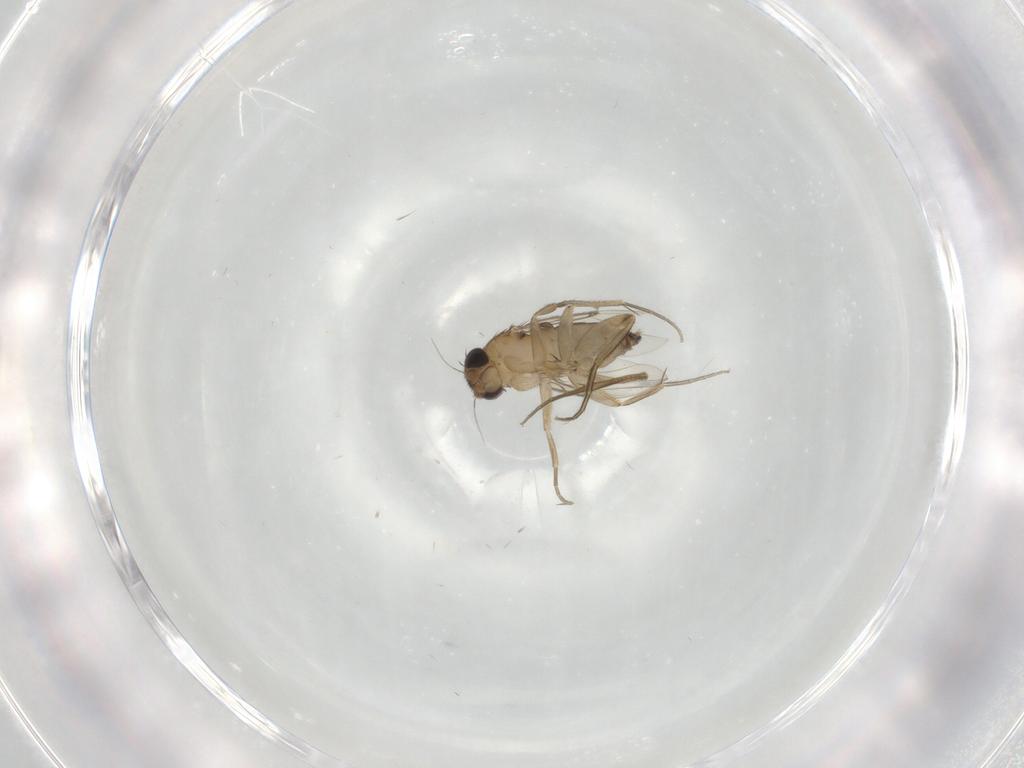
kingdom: Animalia
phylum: Arthropoda
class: Insecta
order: Diptera
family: Phoridae
